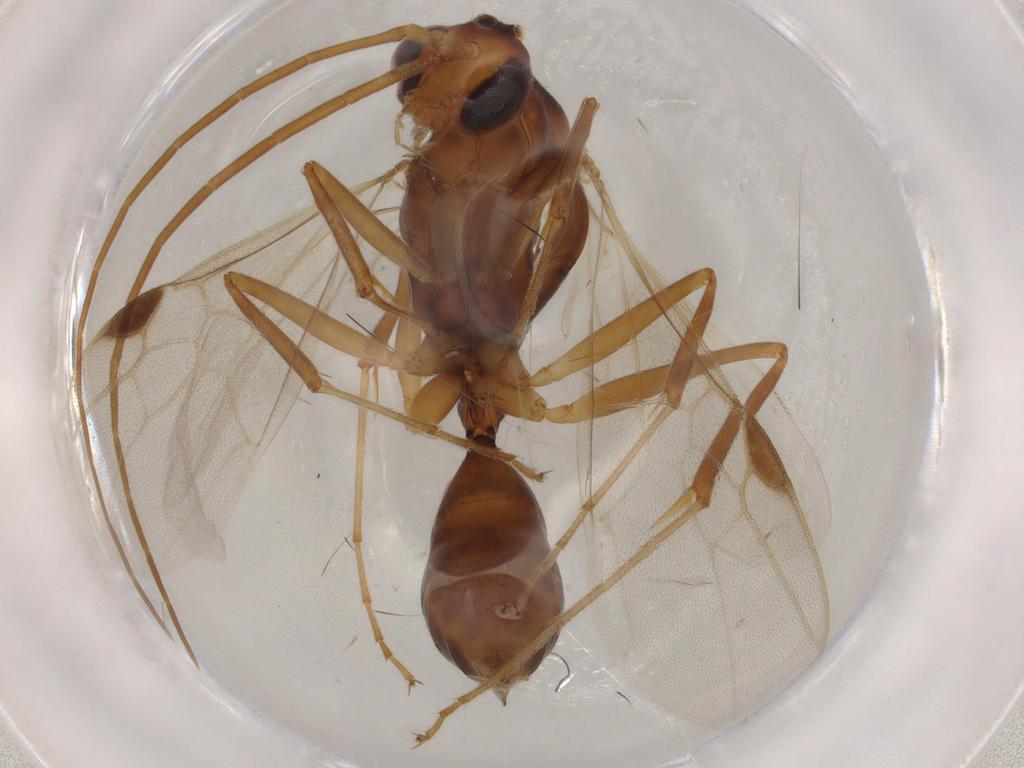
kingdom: Animalia
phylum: Arthropoda
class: Insecta
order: Hymenoptera
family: Formicidae
